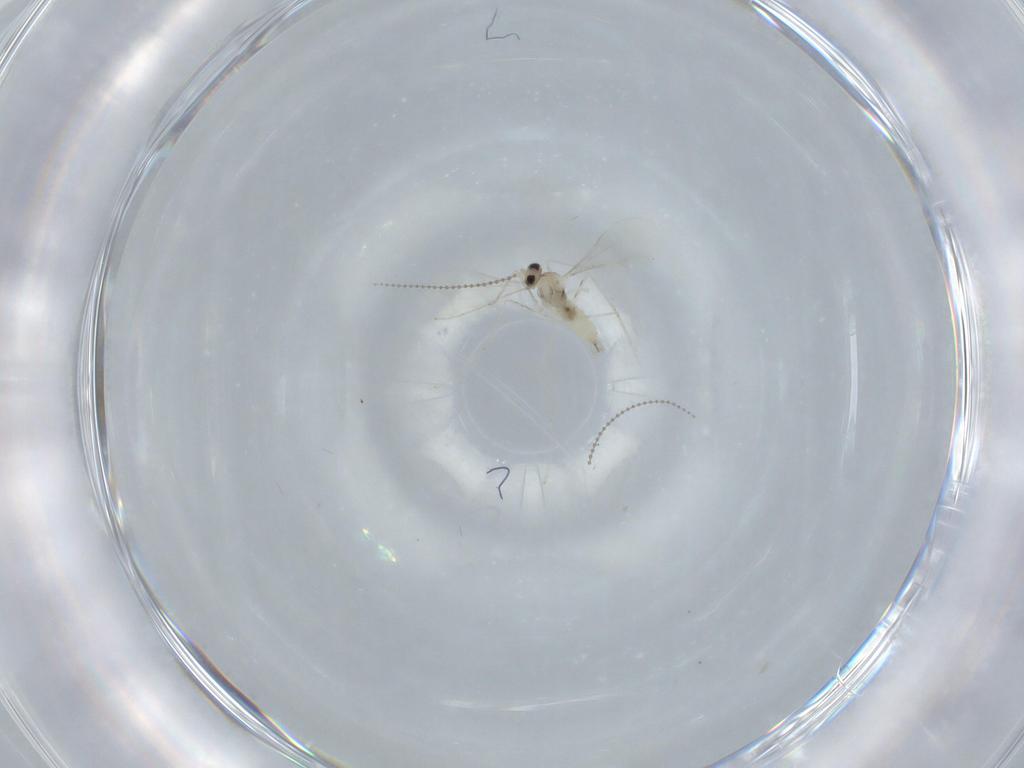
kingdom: Animalia
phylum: Arthropoda
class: Insecta
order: Diptera
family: Cecidomyiidae
